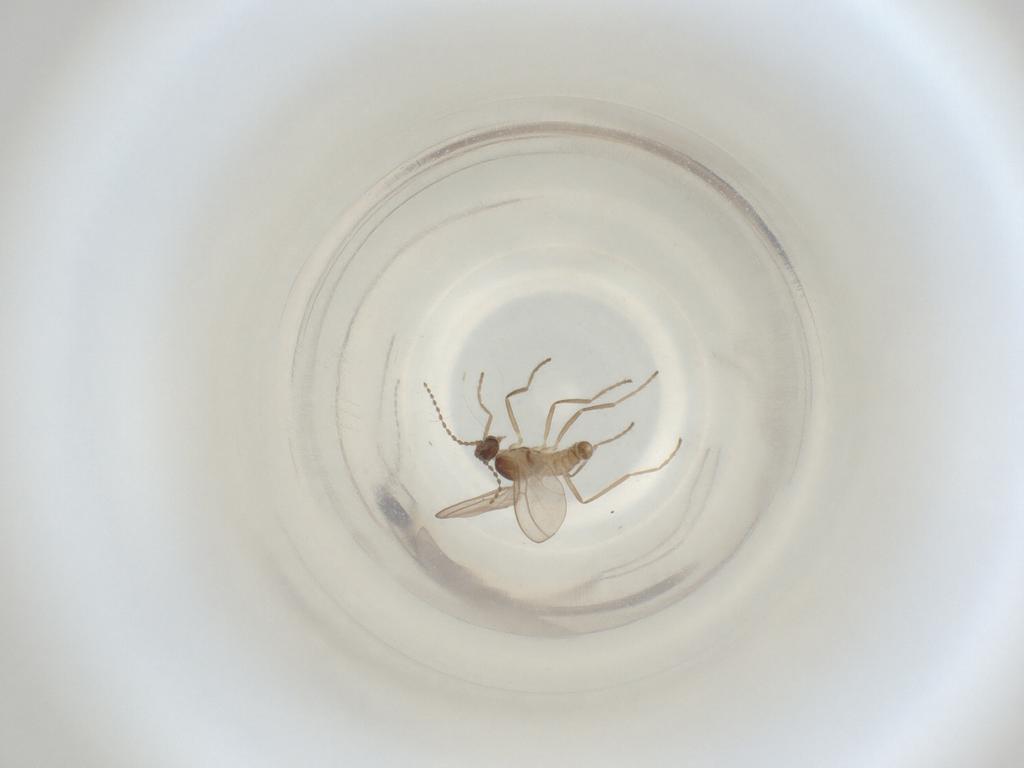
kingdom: Animalia
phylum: Arthropoda
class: Insecta
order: Diptera
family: Cecidomyiidae
